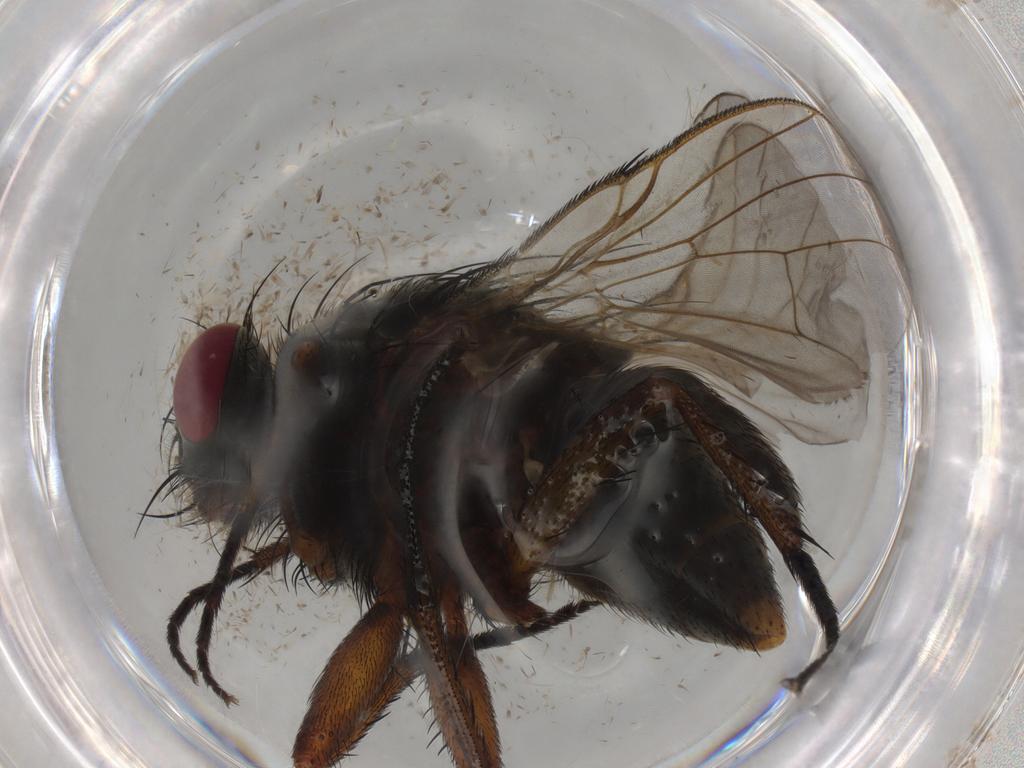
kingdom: Animalia
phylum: Arthropoda
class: Insecta
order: Diptera
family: Muscidae
